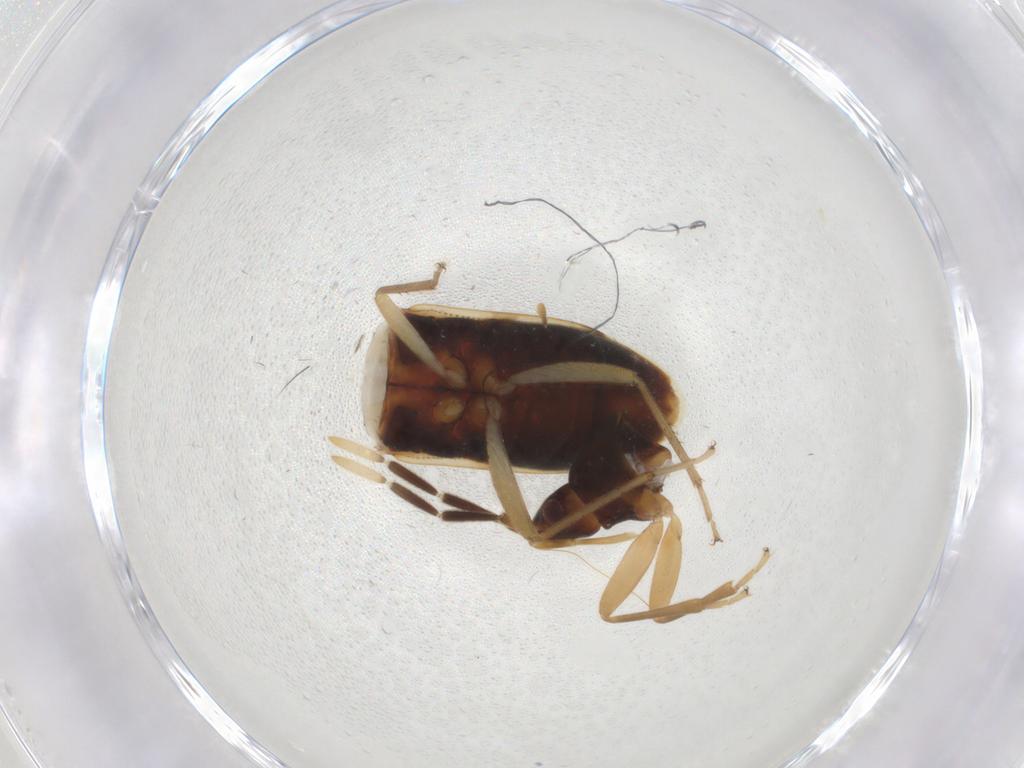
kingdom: Animalia
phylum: Arthropoda
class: Insecta
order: Hemiptera
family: Rhyparochromidae
